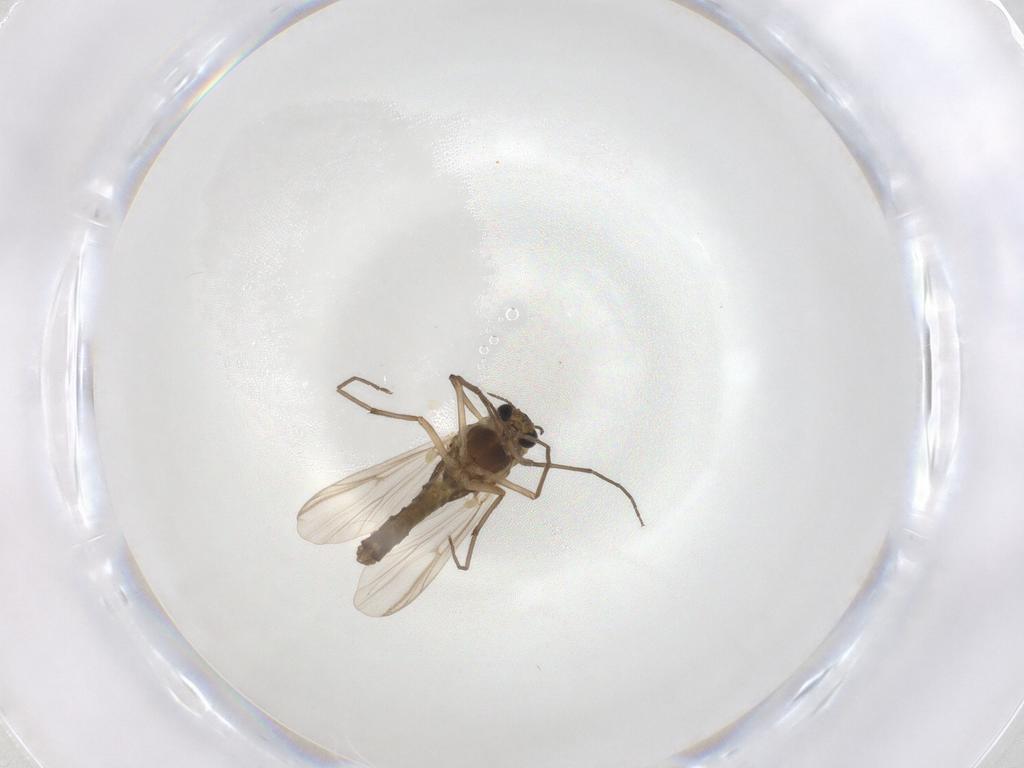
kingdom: Animalia
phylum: Arthropoda
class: Insecta
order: Diptera
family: Chironomidae
